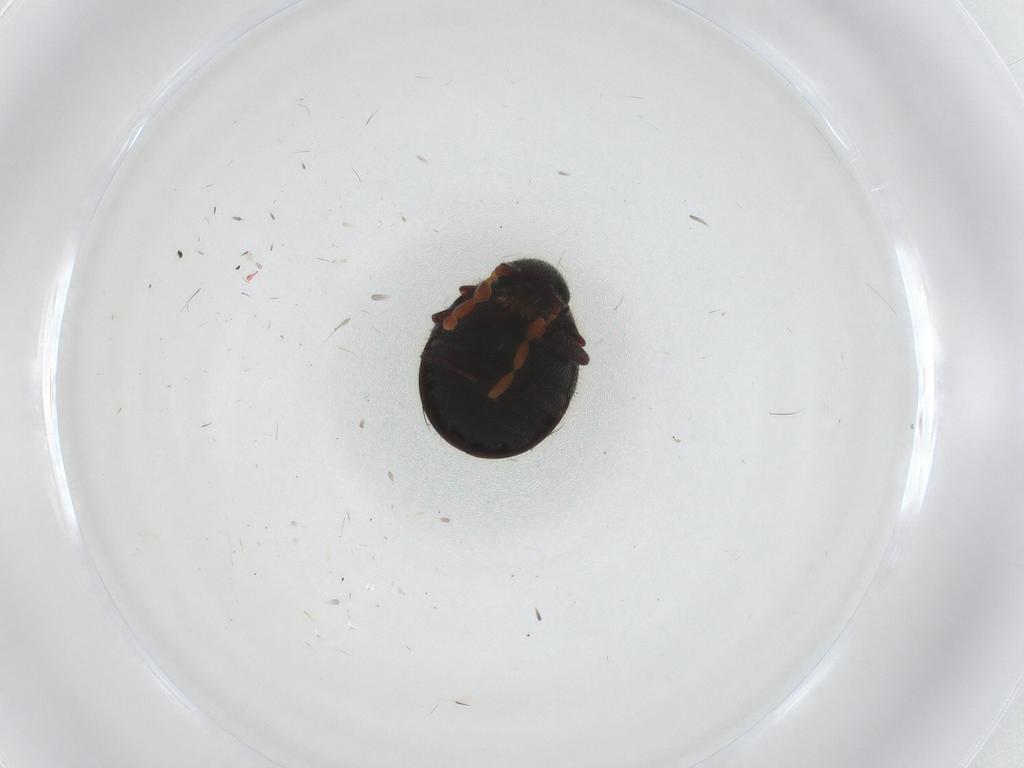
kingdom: Animalia
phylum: Arthropoda
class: Insecta
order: Coleoptera
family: Ptinidae
